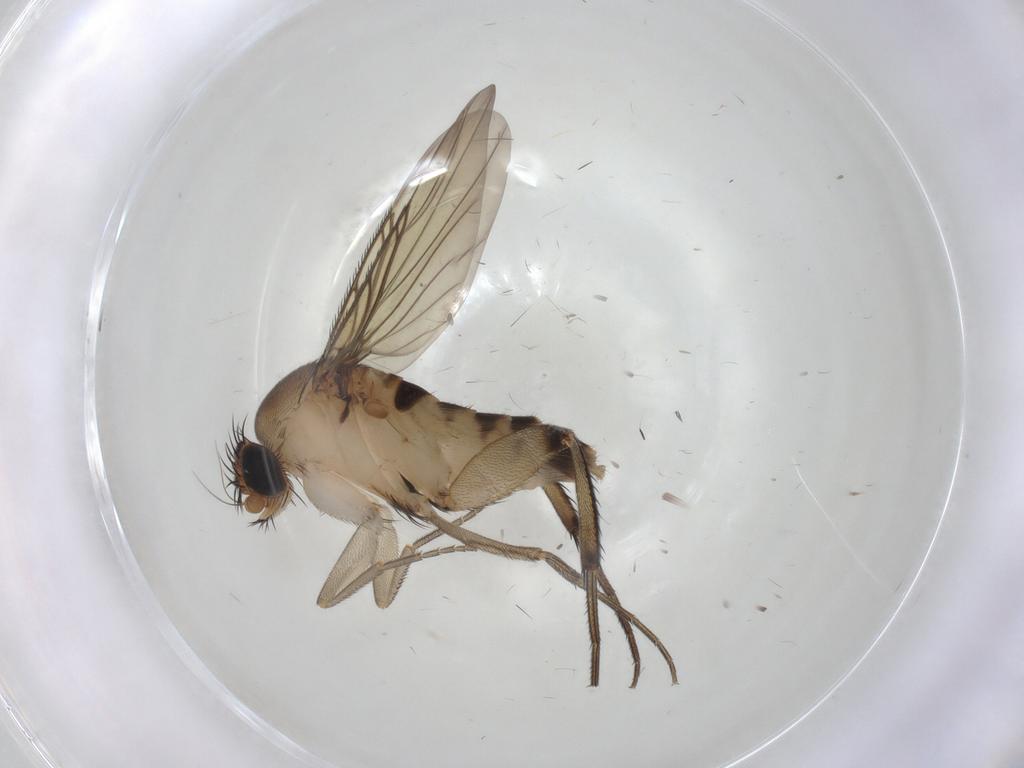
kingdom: Animalia
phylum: Arthropoda
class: Insecta
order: Diptera
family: Phoridae
